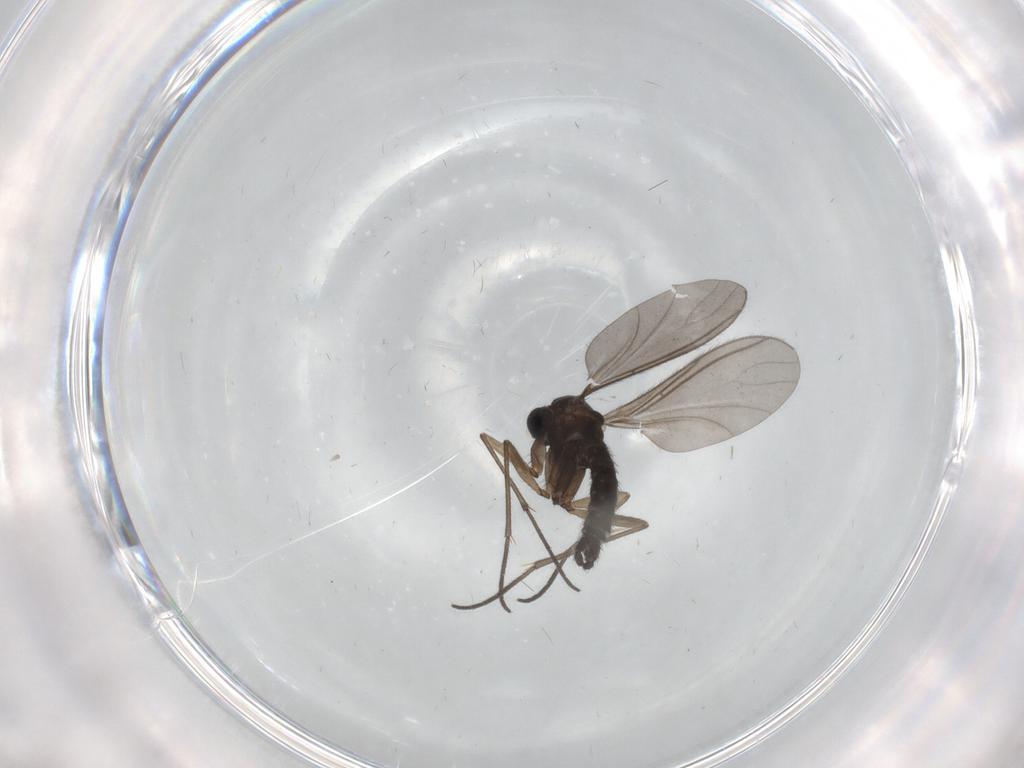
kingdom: Animalia
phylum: Arthropoda
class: Insecta
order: Diptera
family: Sciaridae
